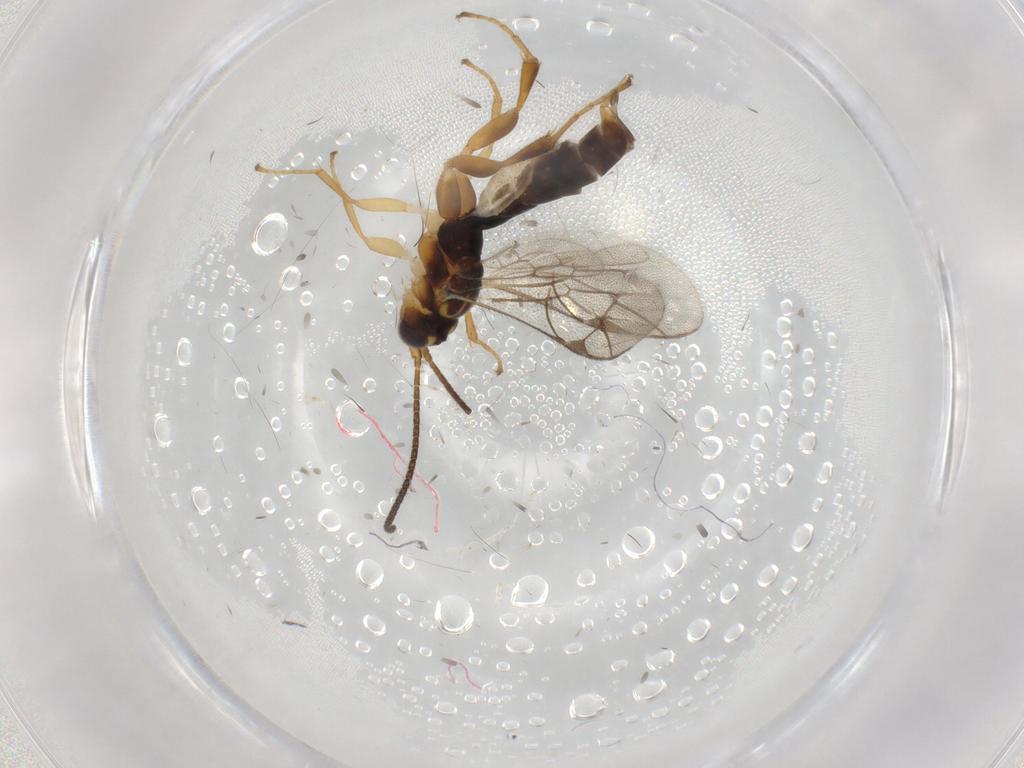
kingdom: Animalia
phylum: Arthropoda
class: Insecta
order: Hymenoptera
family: Ichneumonidae
